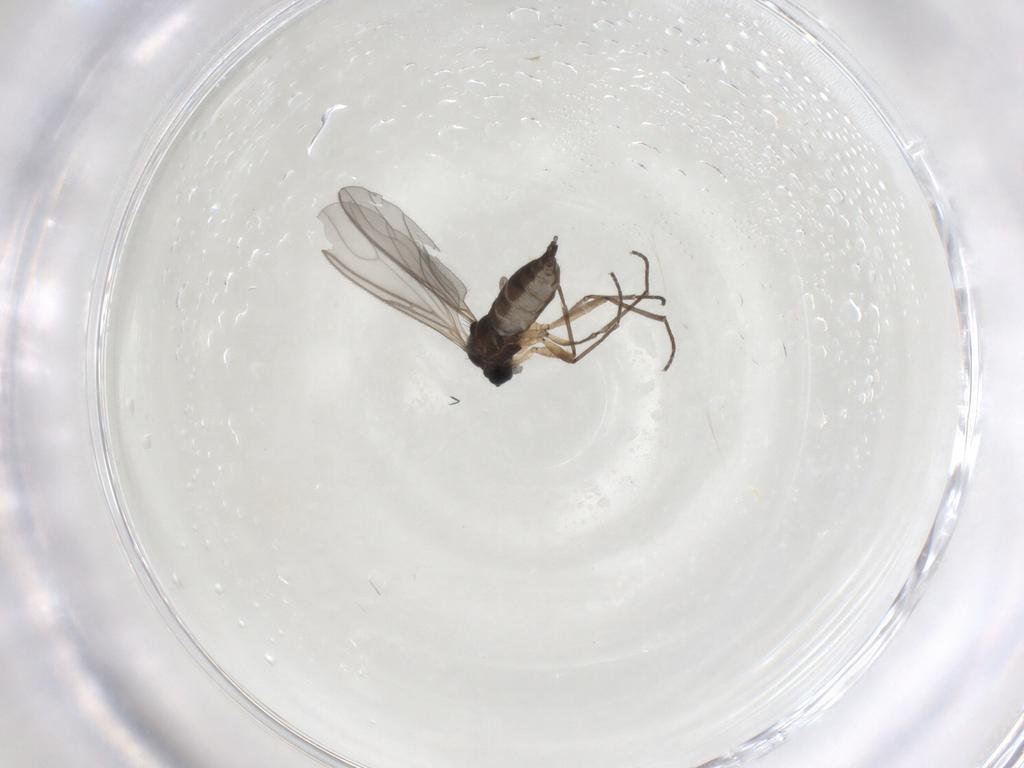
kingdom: Animalia
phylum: Arthropoda
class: Insecta
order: Diptera
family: Sciaridae
